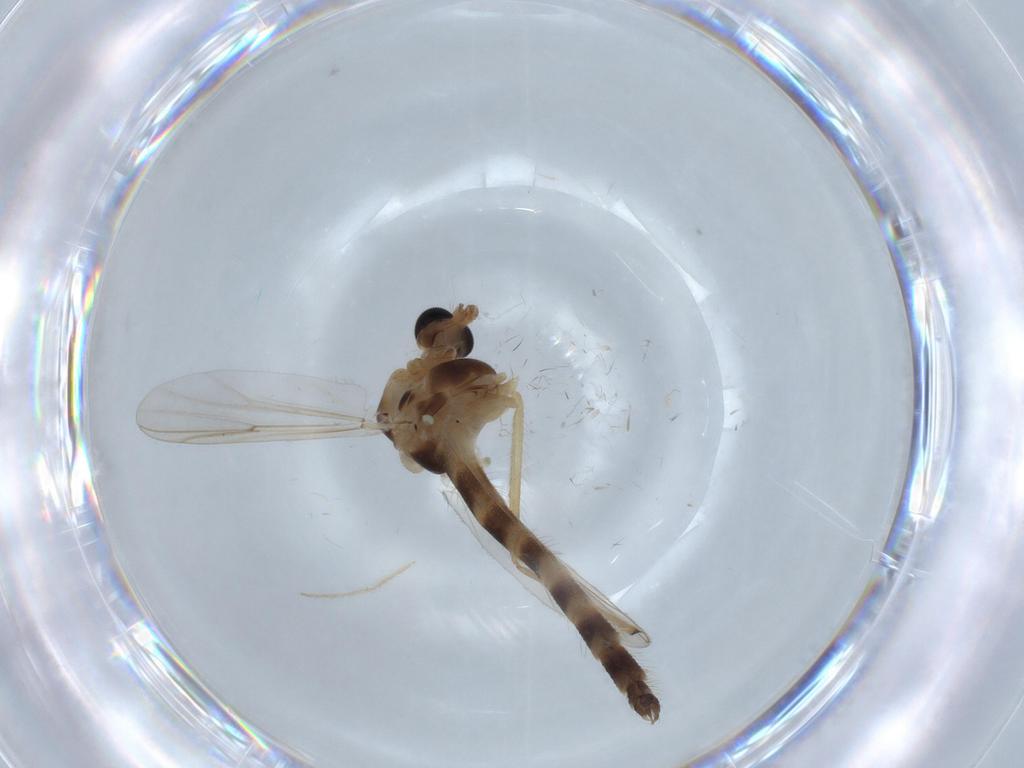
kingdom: Animalia
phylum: Arthropoda
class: Insecta
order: Diptera
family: Cecidomyiidae
